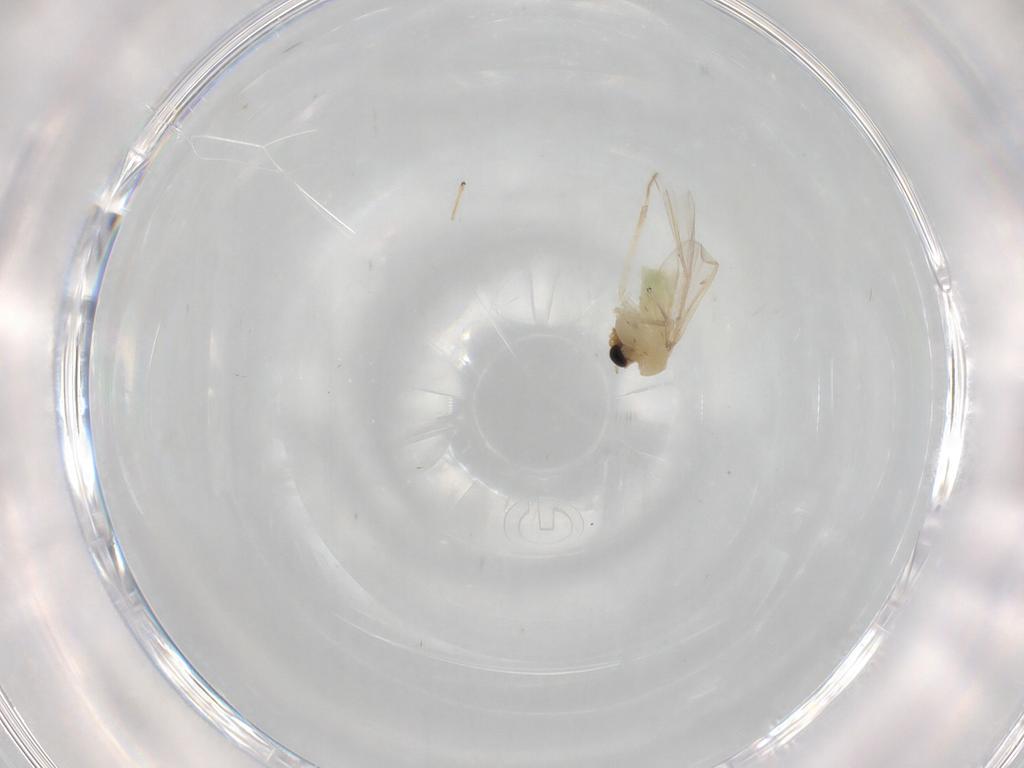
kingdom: Animalia
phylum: Arthropoda
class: Insecta
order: Diptera
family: Chironomidae
